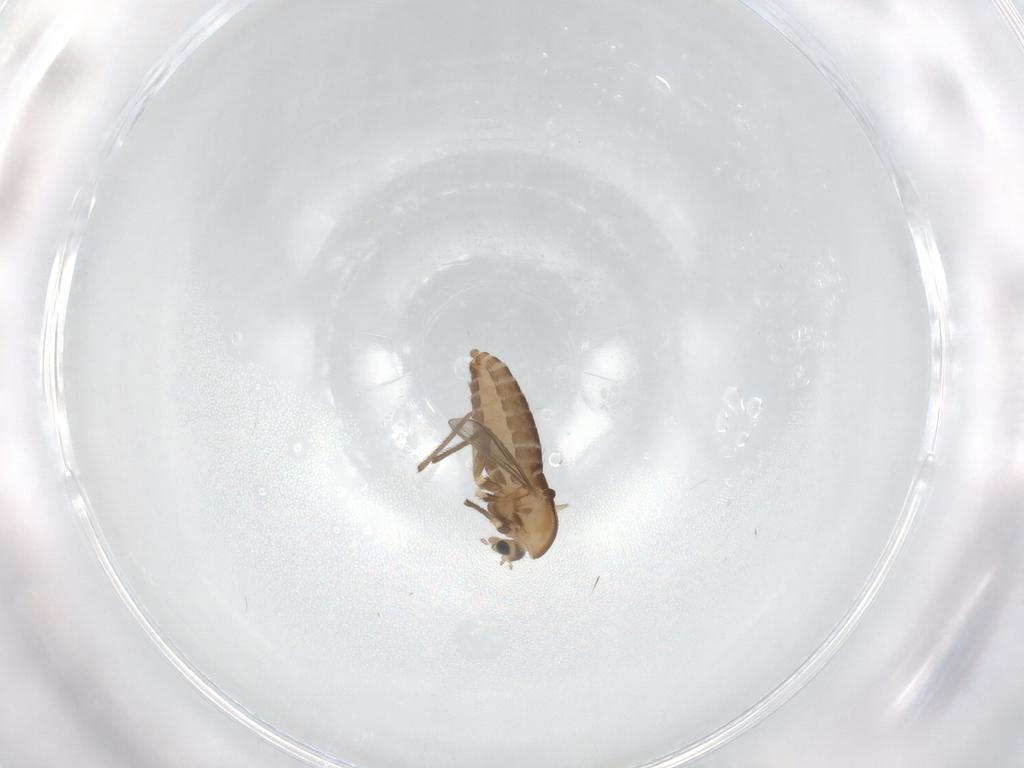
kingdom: Animalia
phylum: Arthropoda
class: Insecta
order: Diptera
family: Chironomidae
